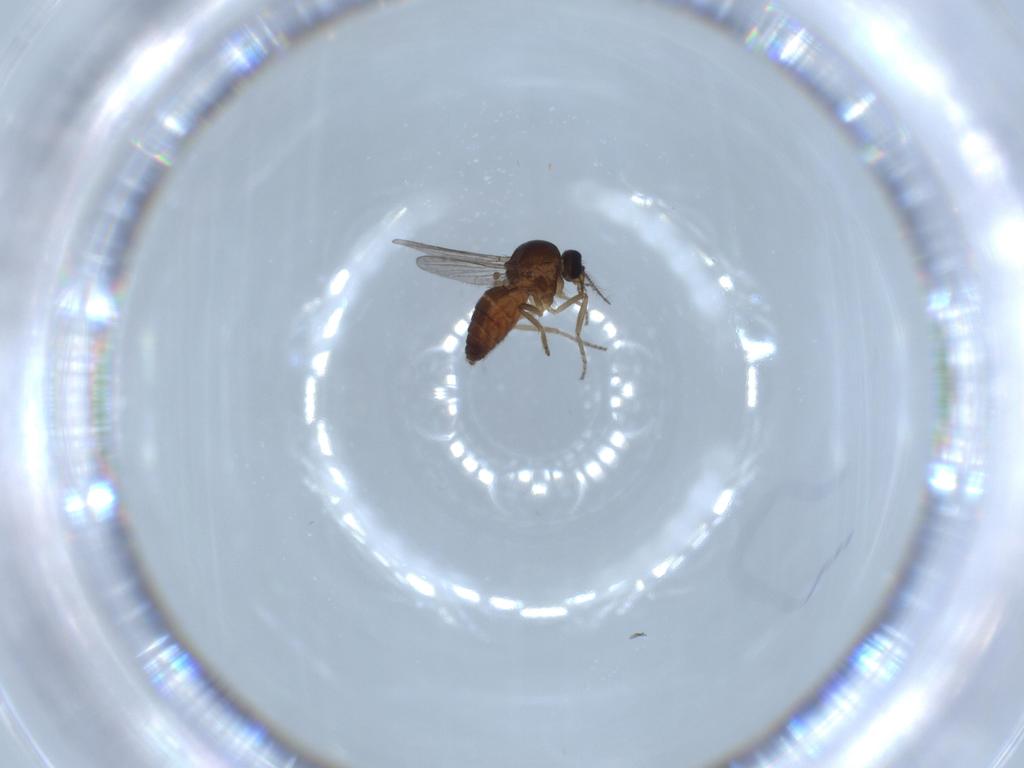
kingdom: Animalia
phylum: Arthropoda
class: Insecta
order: Diptera
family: Ceratopogonidae
